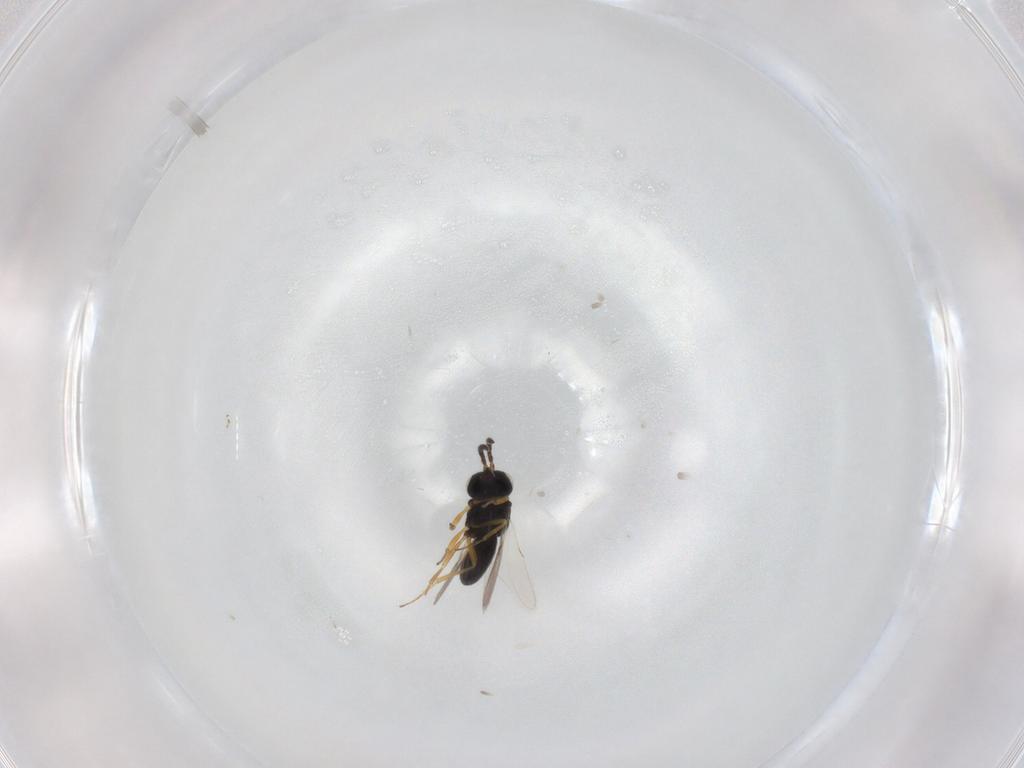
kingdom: Animalia
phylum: Arthropoda
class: Insecta
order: Hymenoptera
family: Scelionidae
